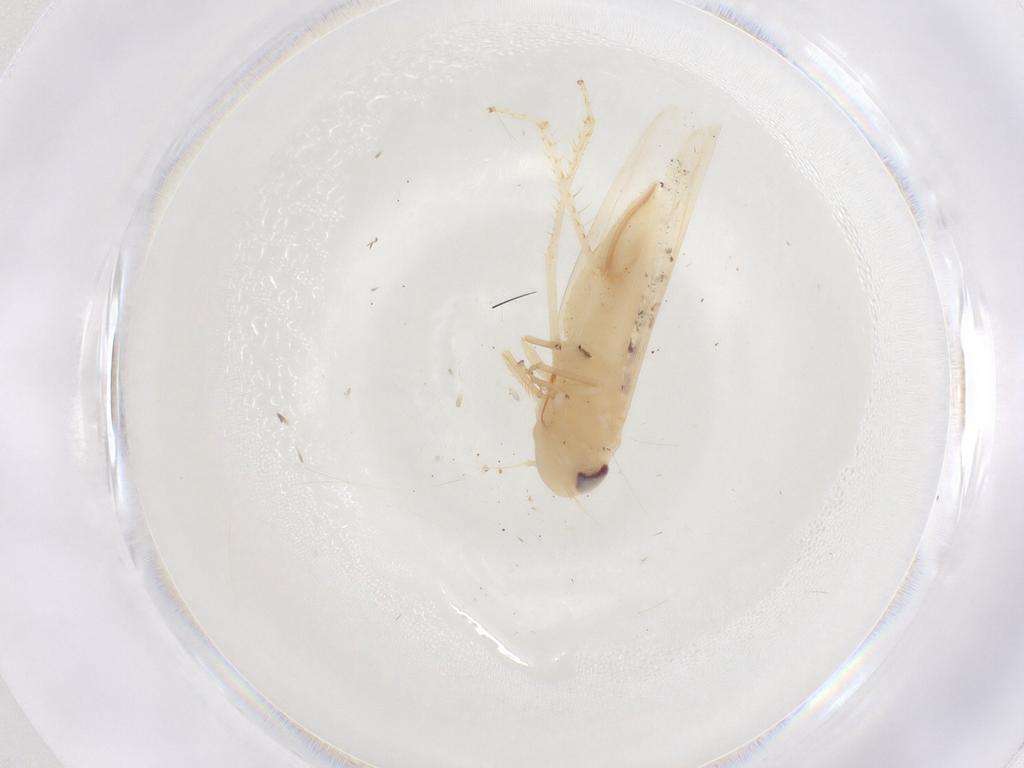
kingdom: Animalia
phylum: Arthropoda
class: Insecta
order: Hemiptera
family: Cicadellidae
